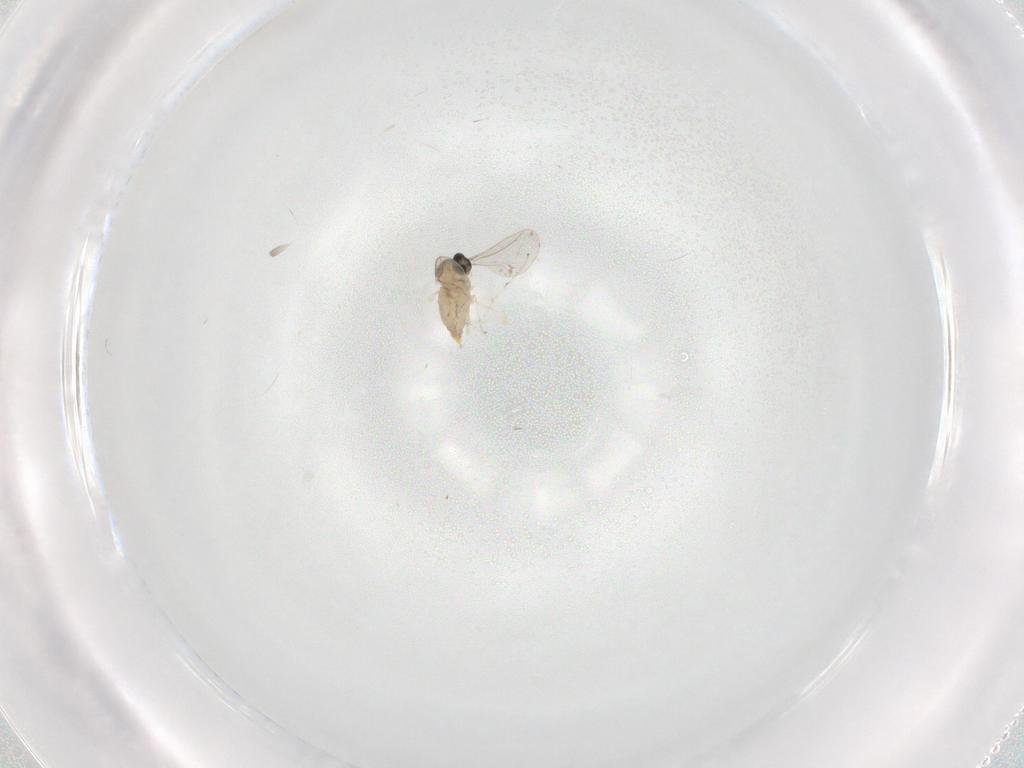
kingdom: Animalia
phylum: Arthropoda
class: Insecta
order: Diptera
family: Cecidomyiidae
